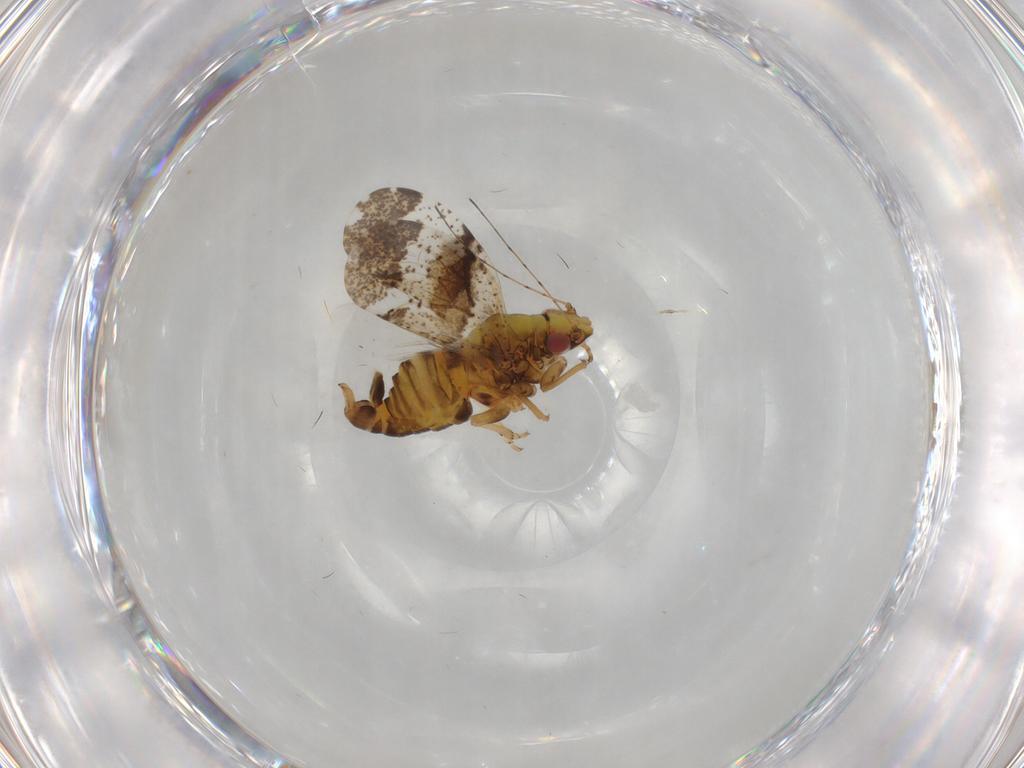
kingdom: Animalia
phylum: Arthropoda
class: Insecta
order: Hemiptera
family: Psyllidae
